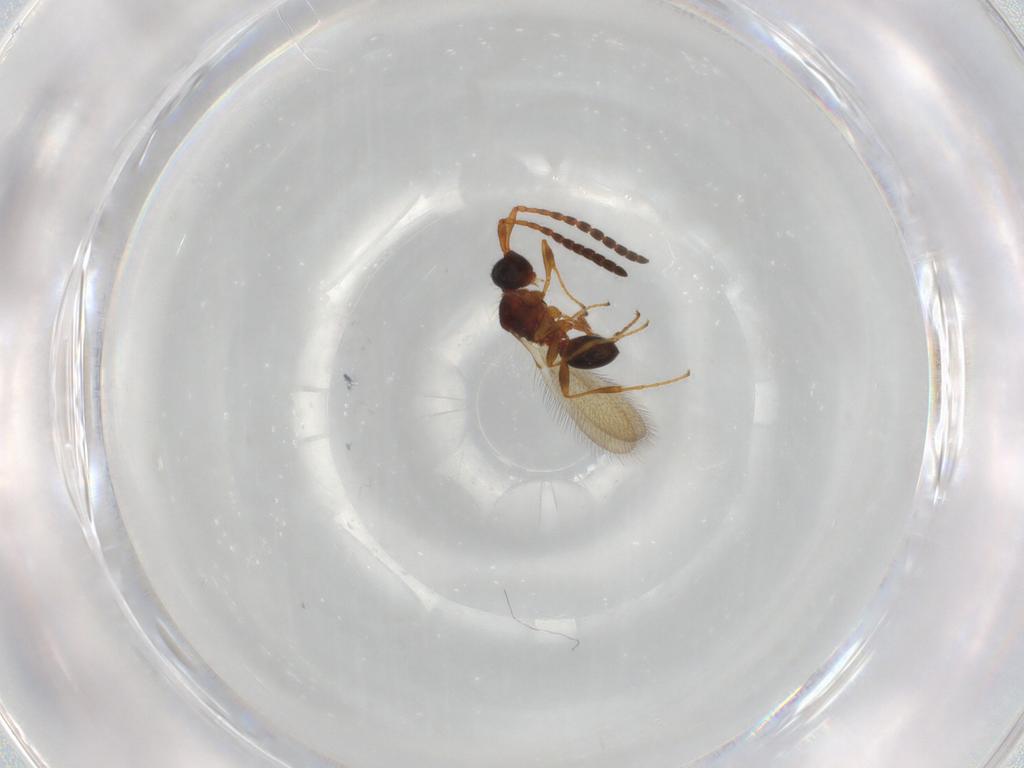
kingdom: Animalia
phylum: Arthropoda
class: Insecta
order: Hymenoptera
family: Diapriidae
